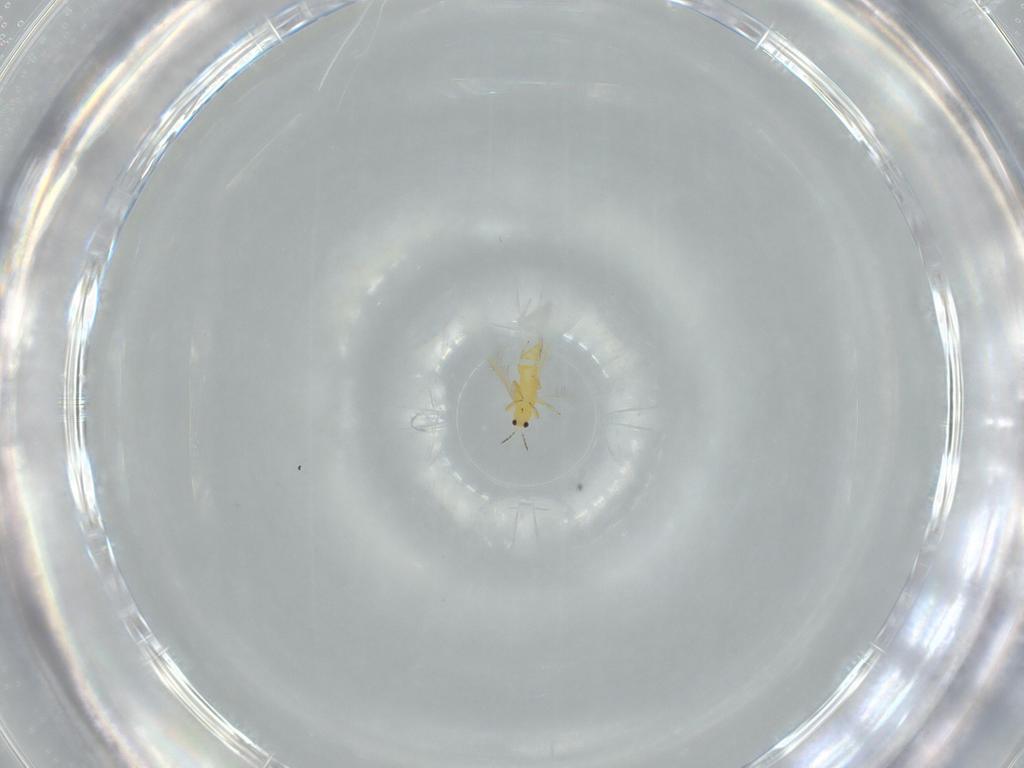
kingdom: Animalia
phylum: Arthropoda
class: Insecta
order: Thysanoptera
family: Thripidae
